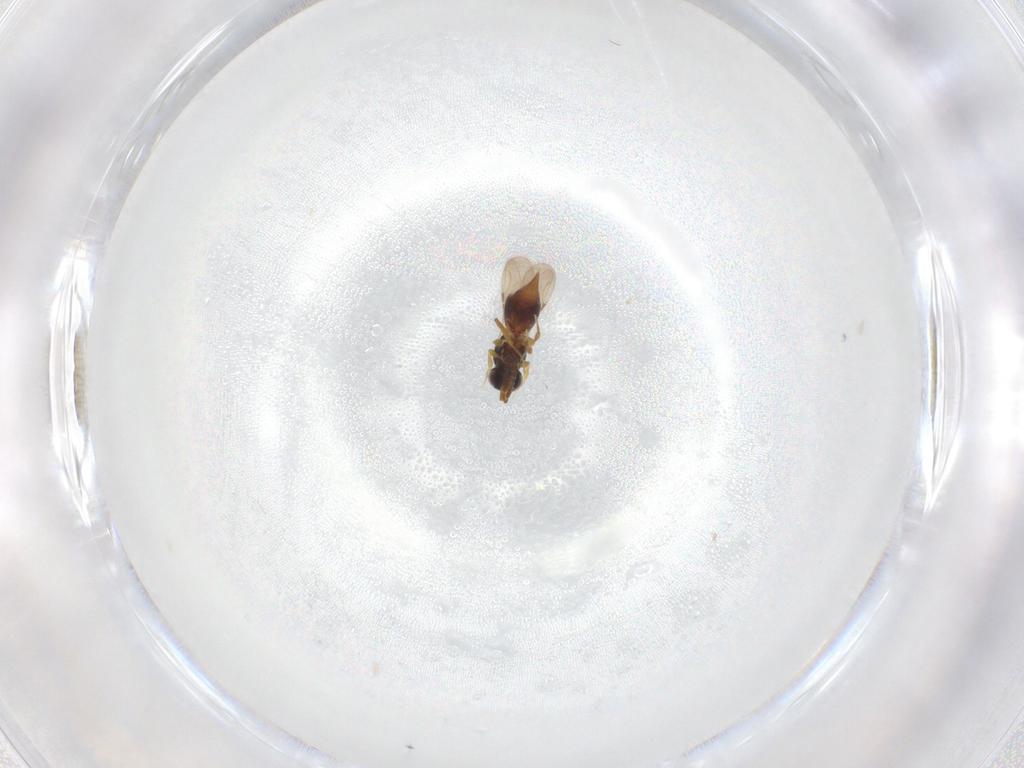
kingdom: Animalia
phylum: Arthropoda
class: Insecta
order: Hymenoptera
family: Ceraphronidae
